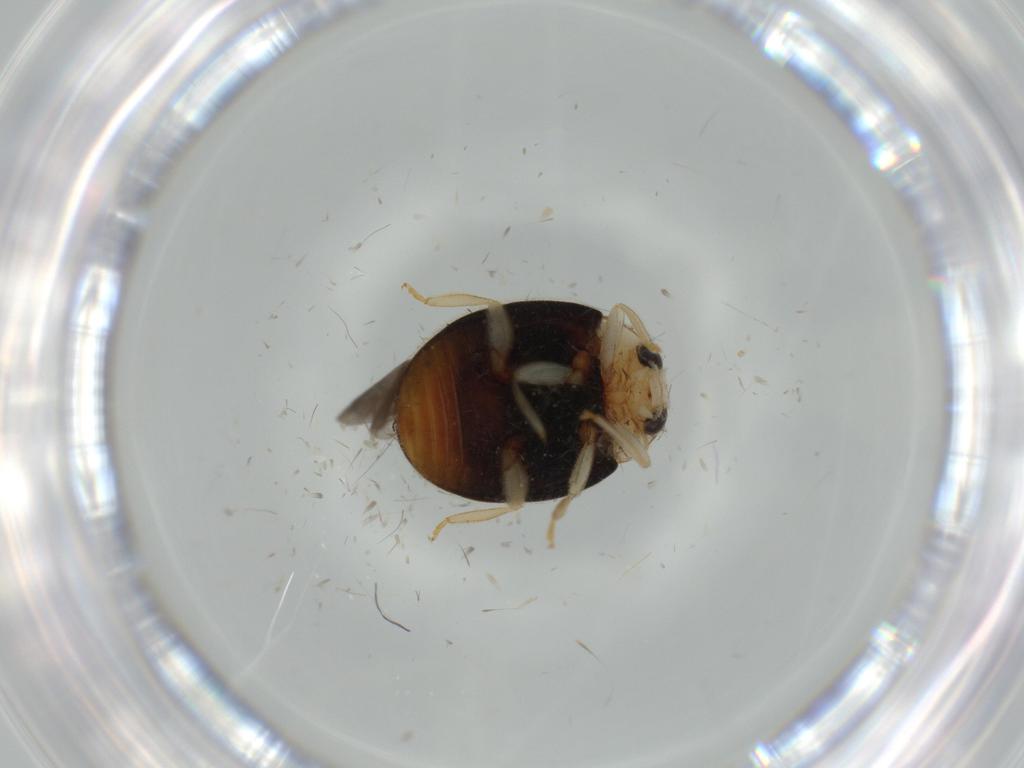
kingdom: Animalia
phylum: Arthropoda
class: Insecta
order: Coleoptera
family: Coccinellidae
